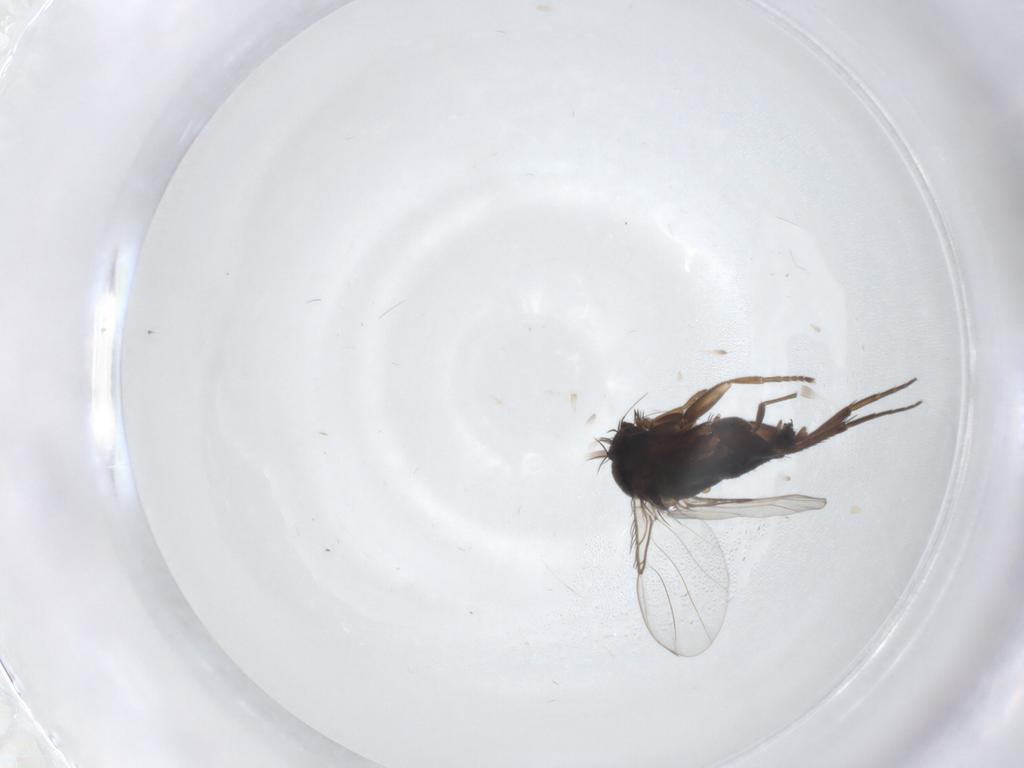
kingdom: Animalia
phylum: Arthropoda
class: Insecta
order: Diptera
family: Phoridae
